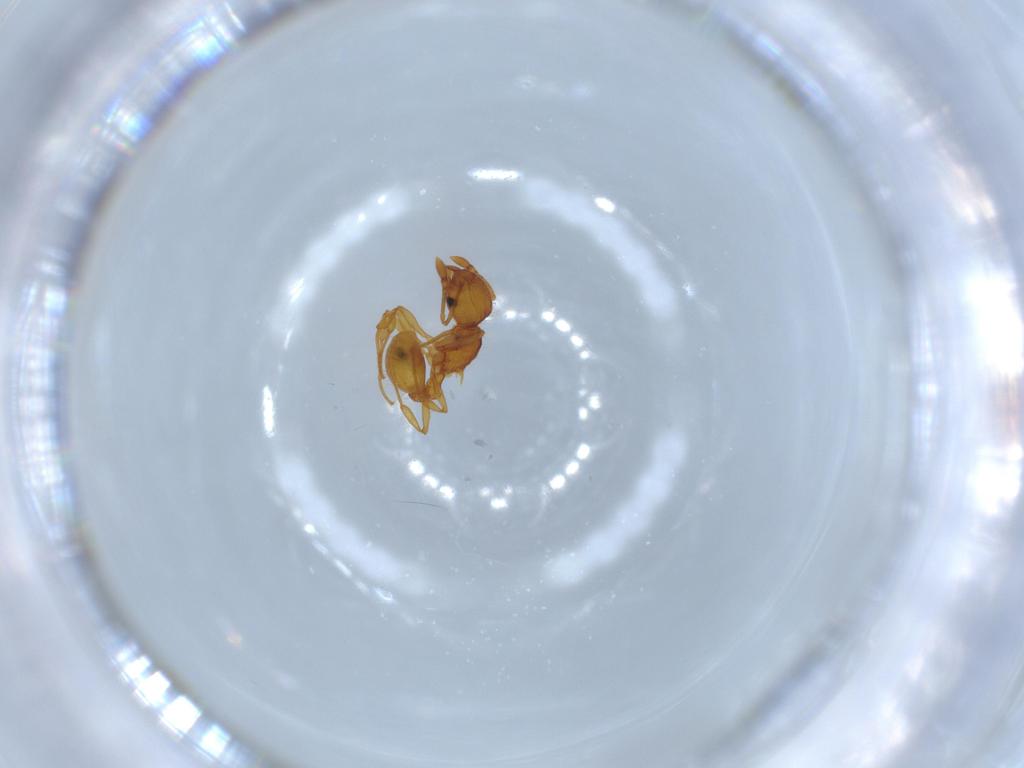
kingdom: Animalia
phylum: Arthropoda
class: Insecta
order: Hymenoptera
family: Formicidae
